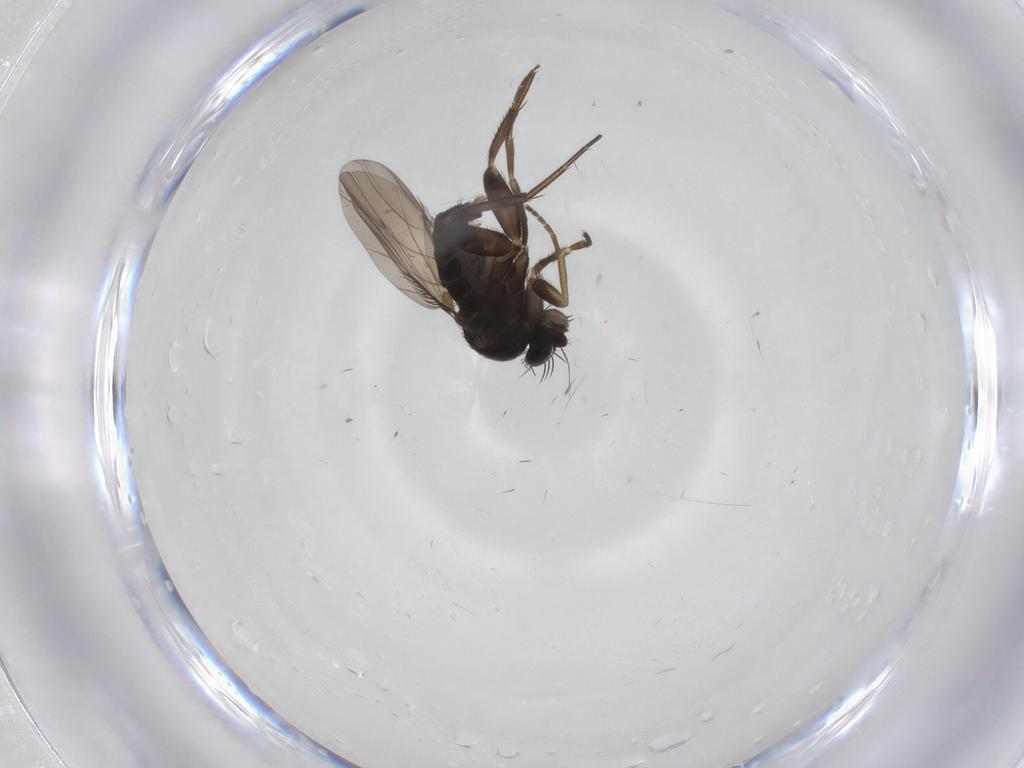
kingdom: Animalia
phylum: Arthropoda
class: Insecta
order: Diptera
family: Phoridae
